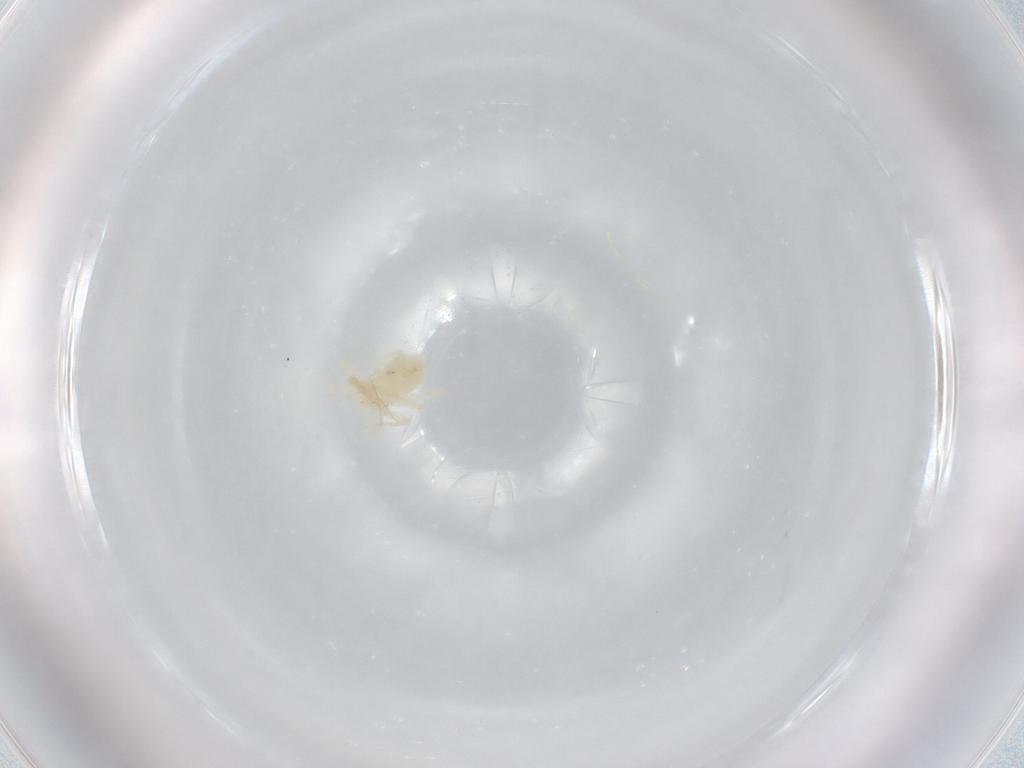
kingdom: Animalia
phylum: Arthropoda
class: Arachnida
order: Trombidiformes
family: Anystidae
